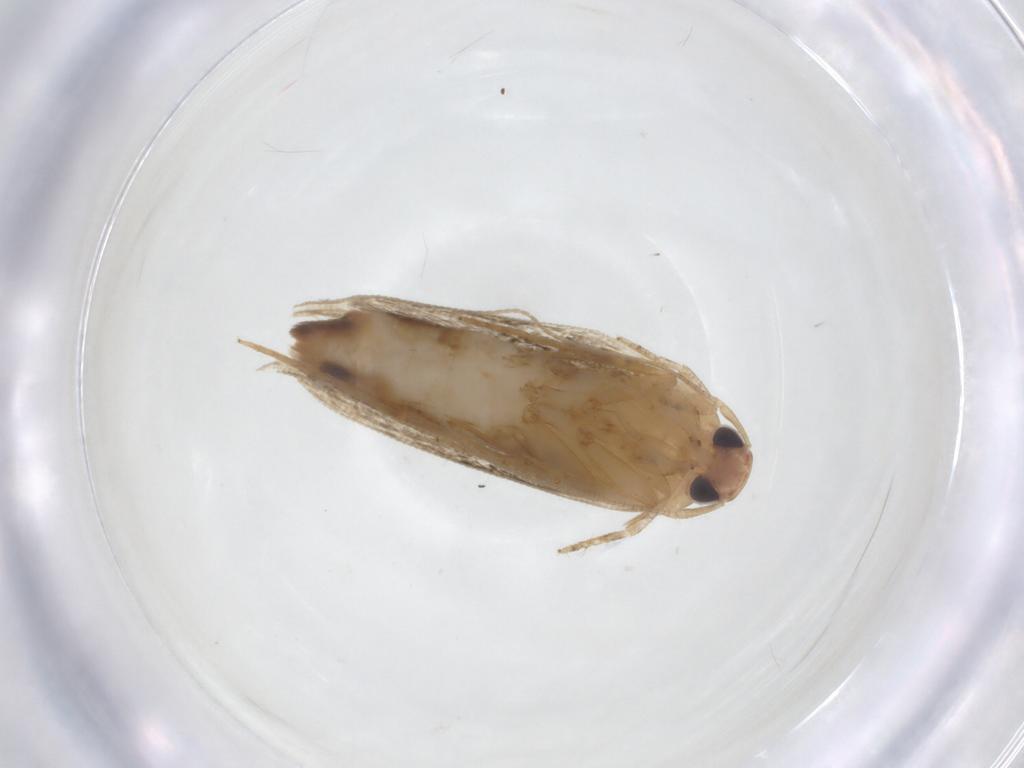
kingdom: Animalia
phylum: Arthropoda
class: Insecta
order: Lepidoptera
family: Cosmopterigidae
